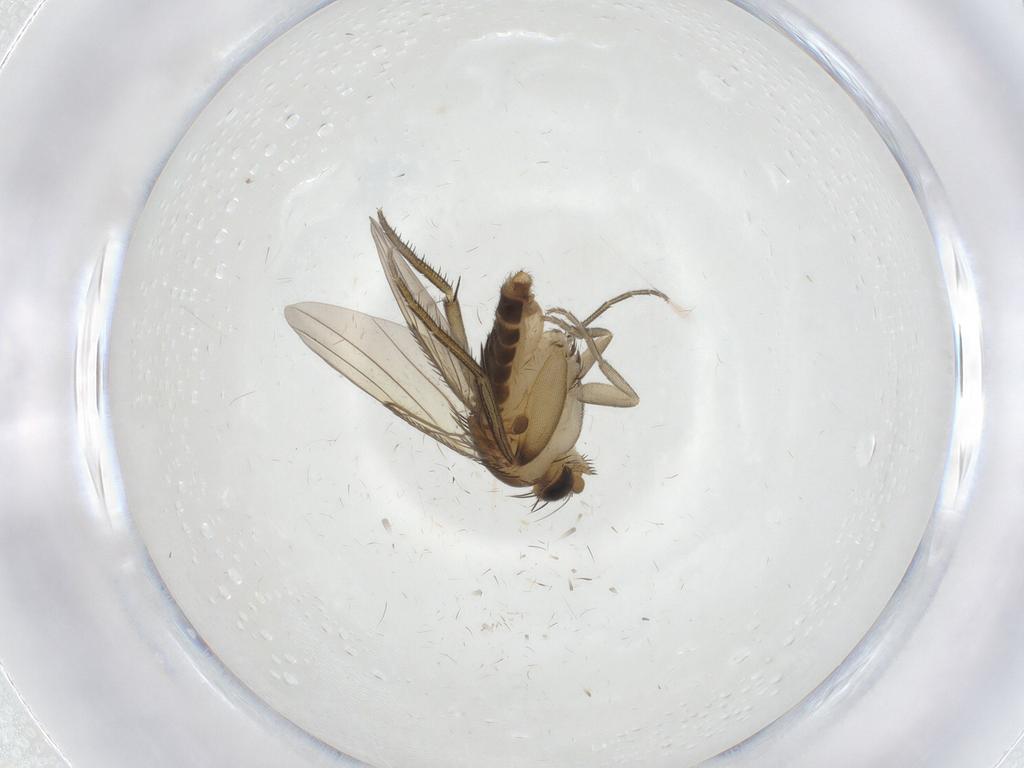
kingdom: Animalia
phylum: Arthropoda
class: Insecta
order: Diptera
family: Phoridae
